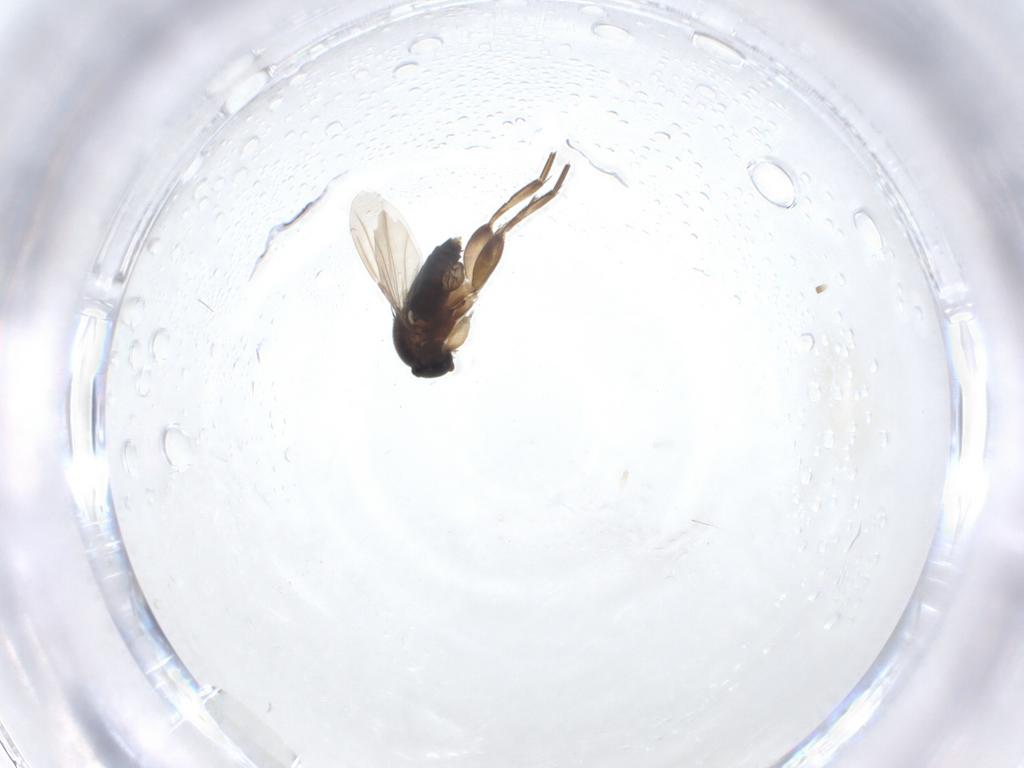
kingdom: Animalia
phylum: Arthropoda
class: Insecta
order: Diptera
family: Phoridae
